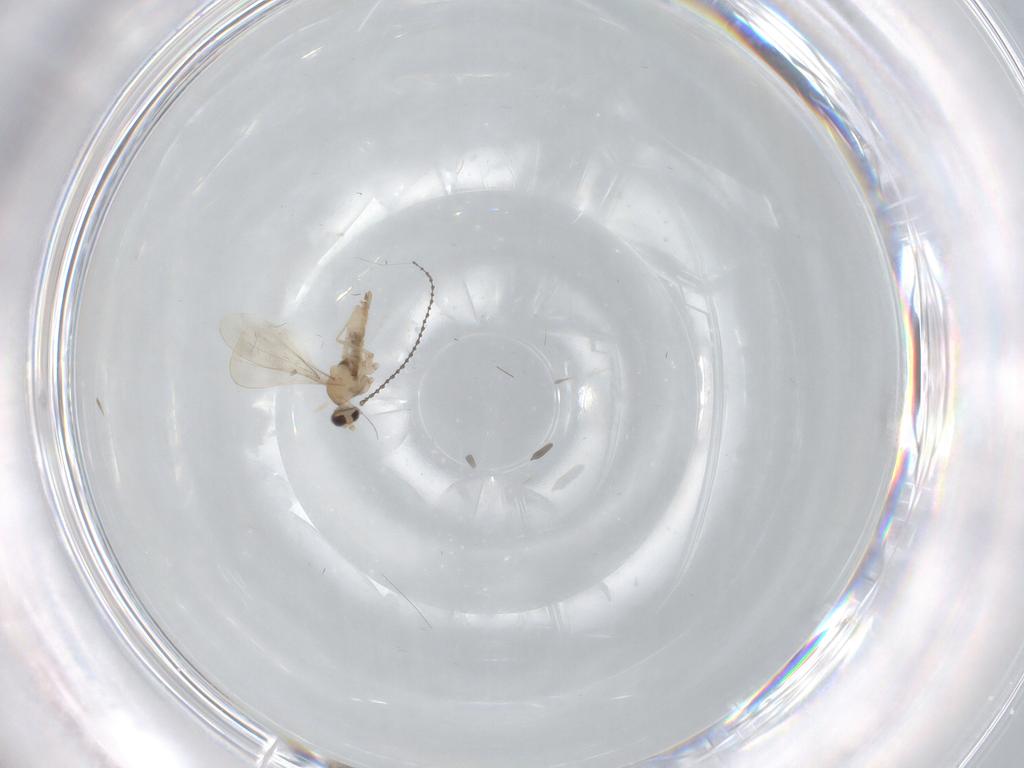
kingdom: Animalia
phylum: Arthropoda
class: Insecta
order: Diptera
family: Cecidomyiidae
